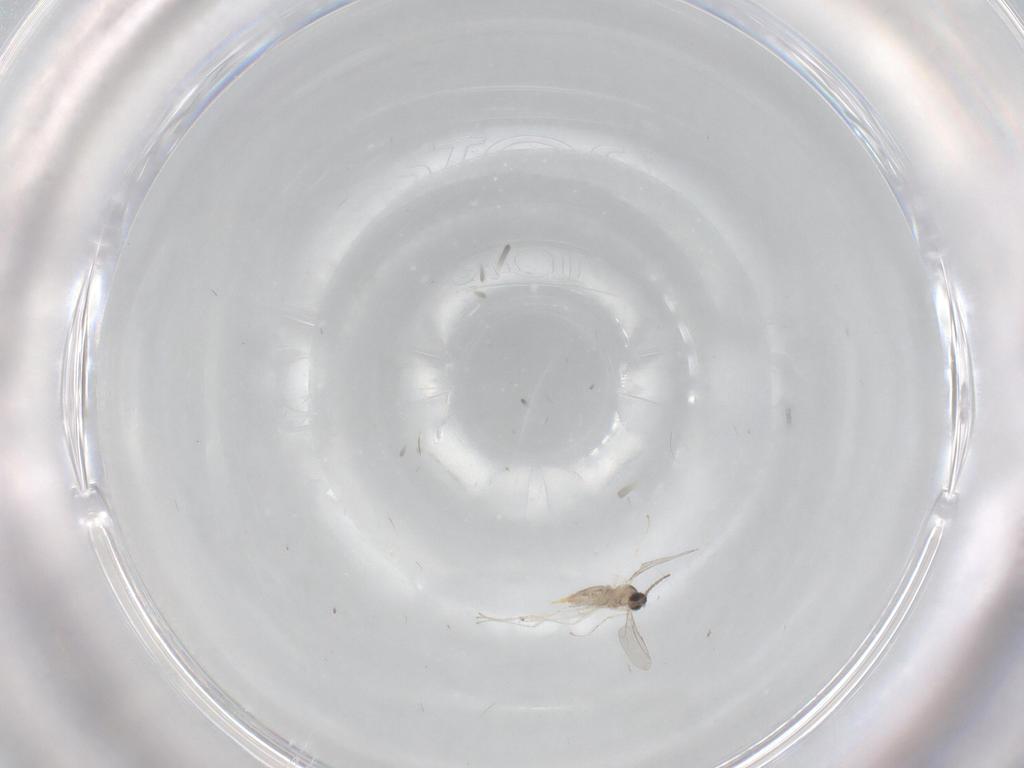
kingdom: Animalia
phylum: Arthropoda
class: Insecta
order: Diptera
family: Cecidomyiidae
